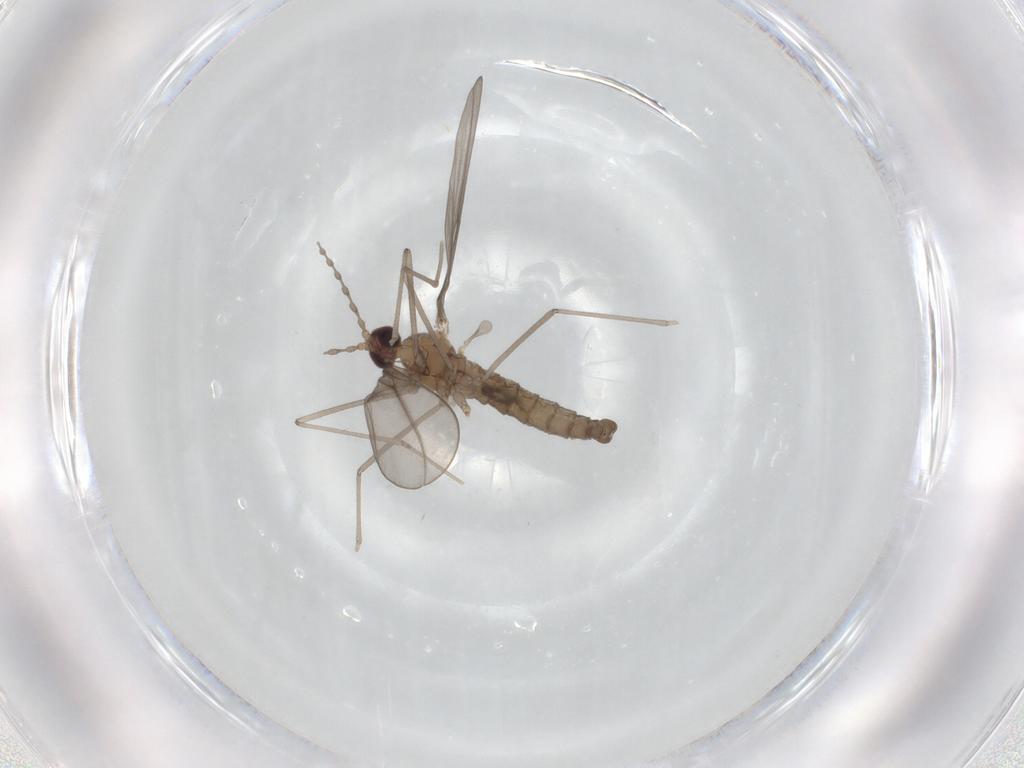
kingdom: Animalia
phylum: Arthropoda
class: Insecta
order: Diptera
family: Cecidomyiidae
